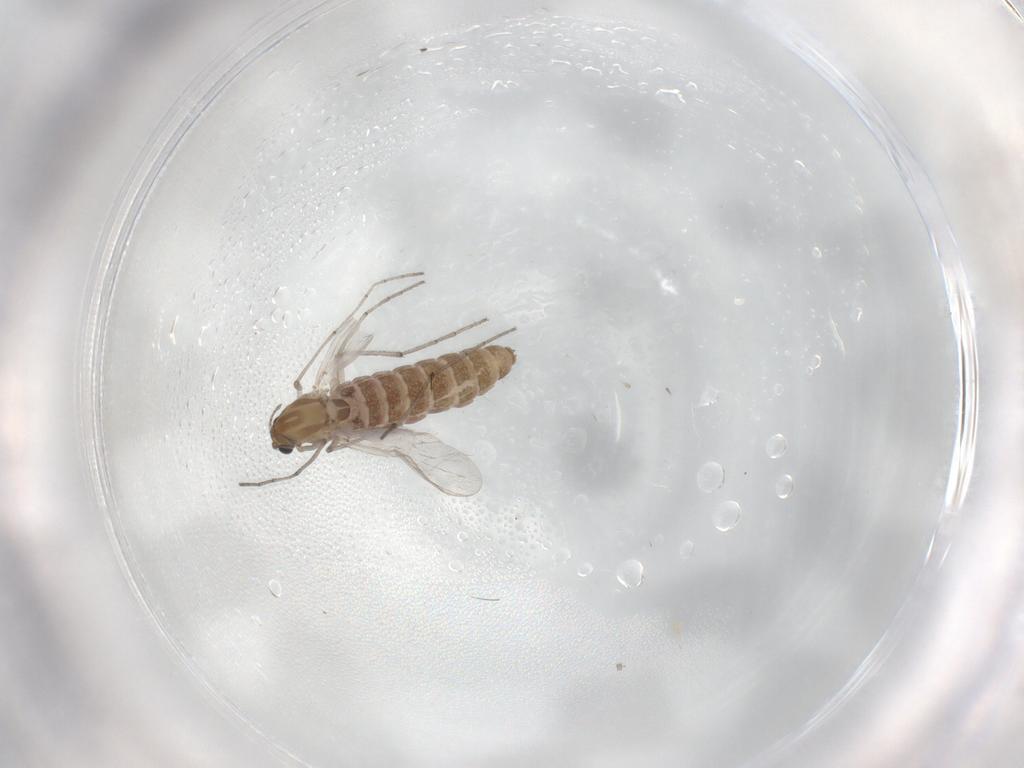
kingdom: Animalia
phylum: Arthropoda
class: Insecta
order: Diptera
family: Chironomidae
